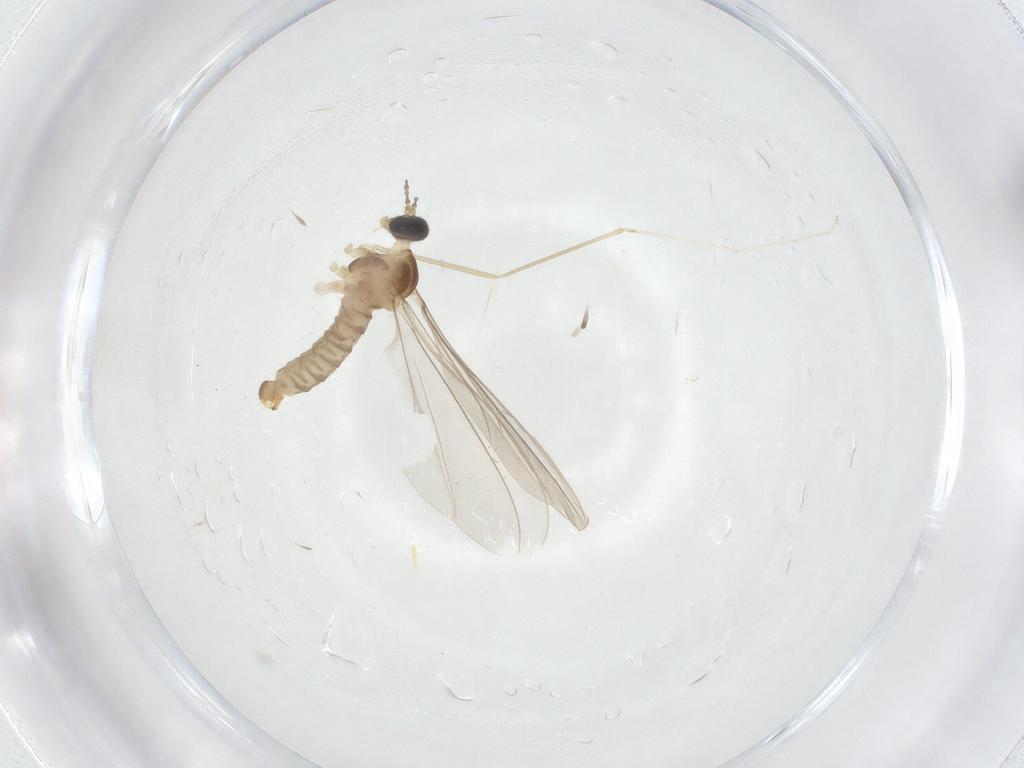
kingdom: Animalia
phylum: Arthropoda
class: Insecta
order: Diptera
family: Cecidomyiidae
